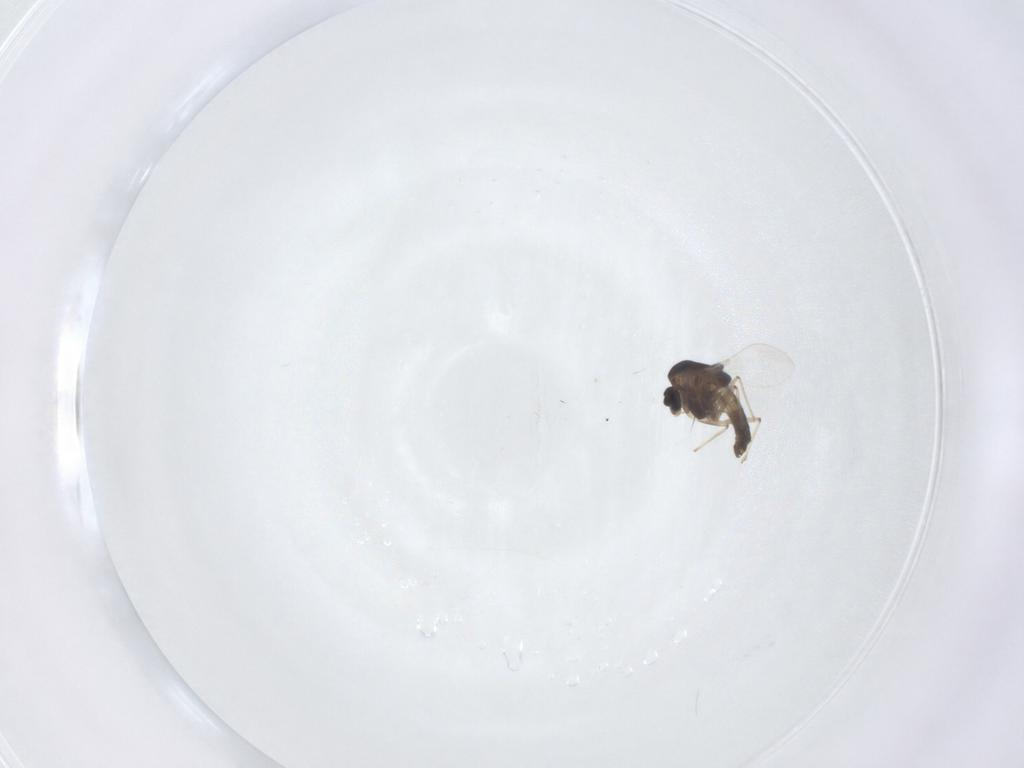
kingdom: Animalia
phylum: Arthropoda
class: Insecta
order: Diptera
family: Chironomidae
